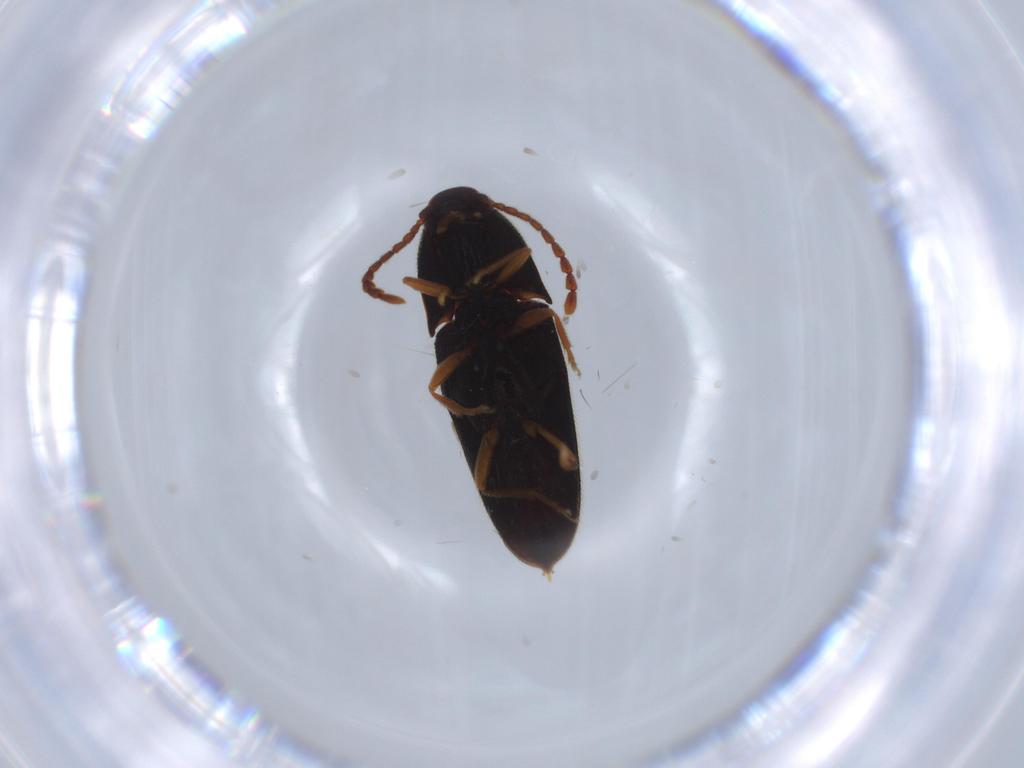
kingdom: Animalia
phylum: Arthropoda
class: Insecta
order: Coleoptera
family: Elateridae
